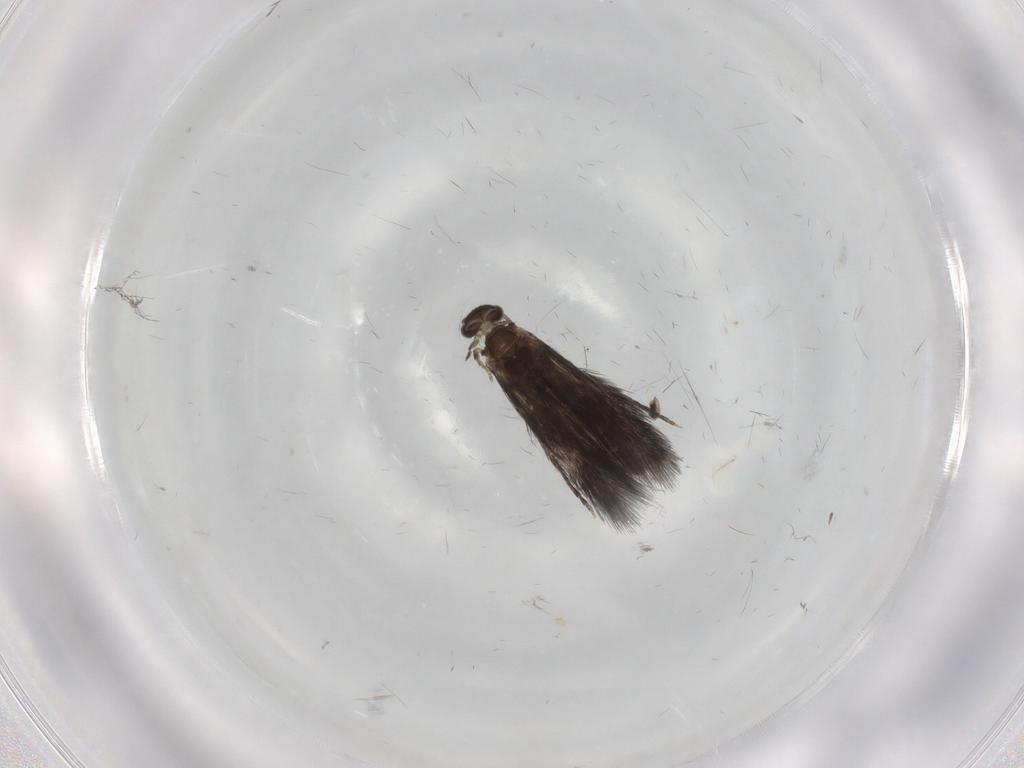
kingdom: Animalia
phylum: Arthropoda
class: Insecta
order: Trichoptera
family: Hydroptilidae
